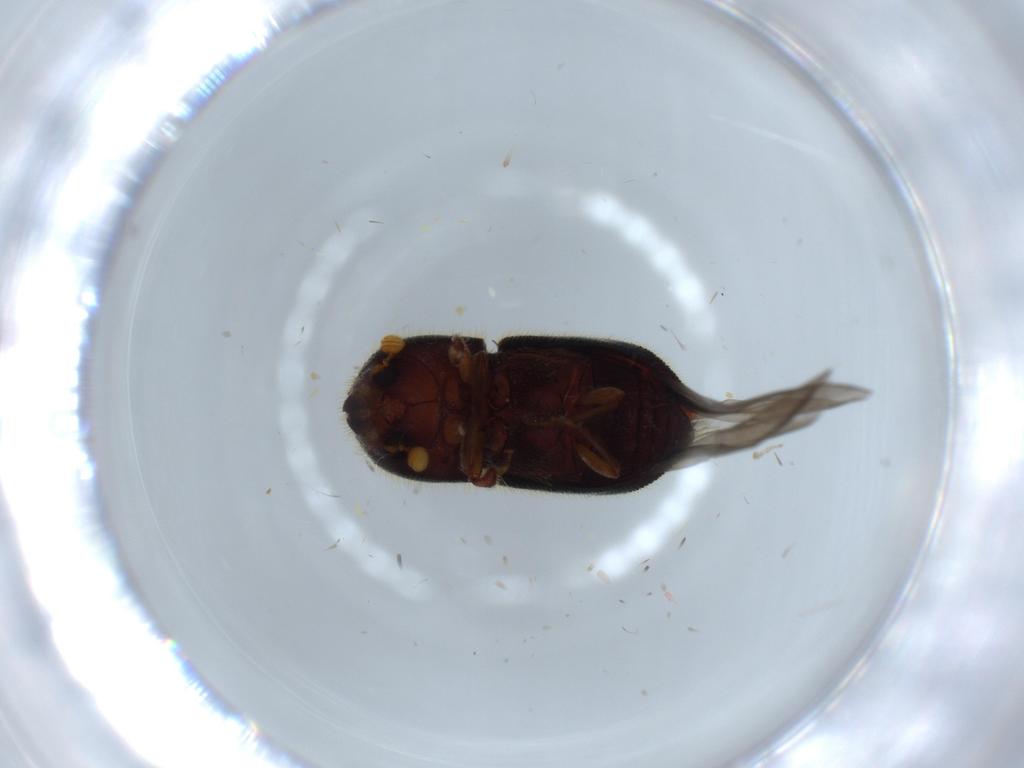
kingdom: Animalia
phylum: Arthropoda
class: Insecta
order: Coleoptera
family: Curculionidae
